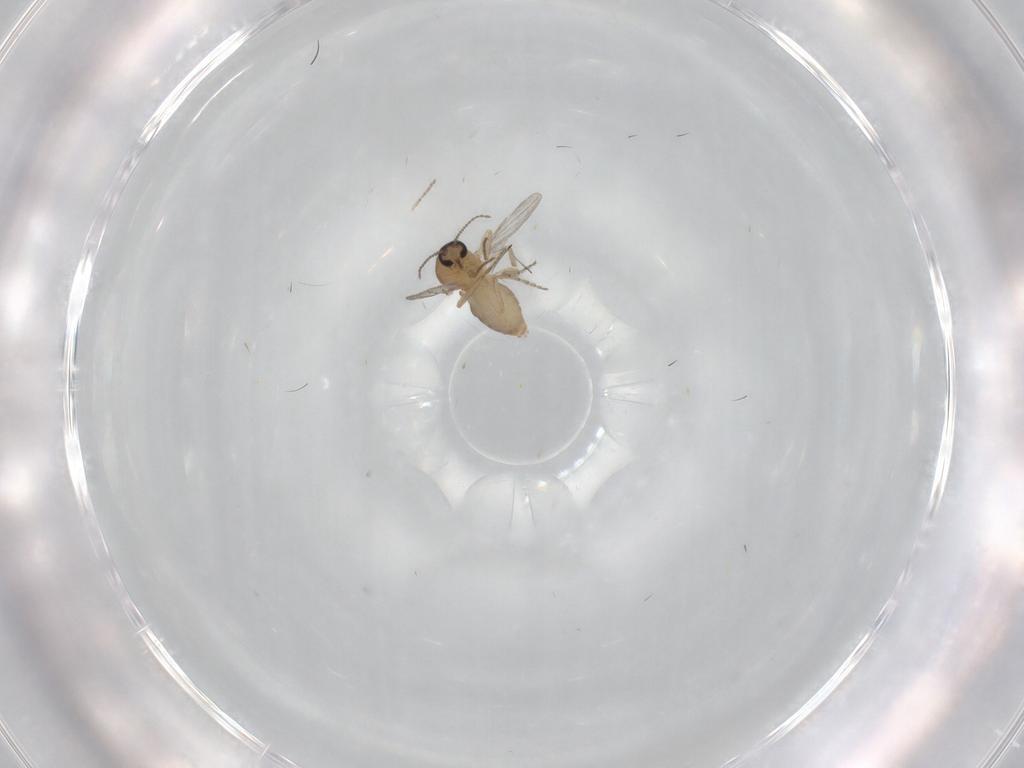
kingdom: Animalia
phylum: Arthropoda
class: Insecta
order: Diptera
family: Ceratopogonidae
